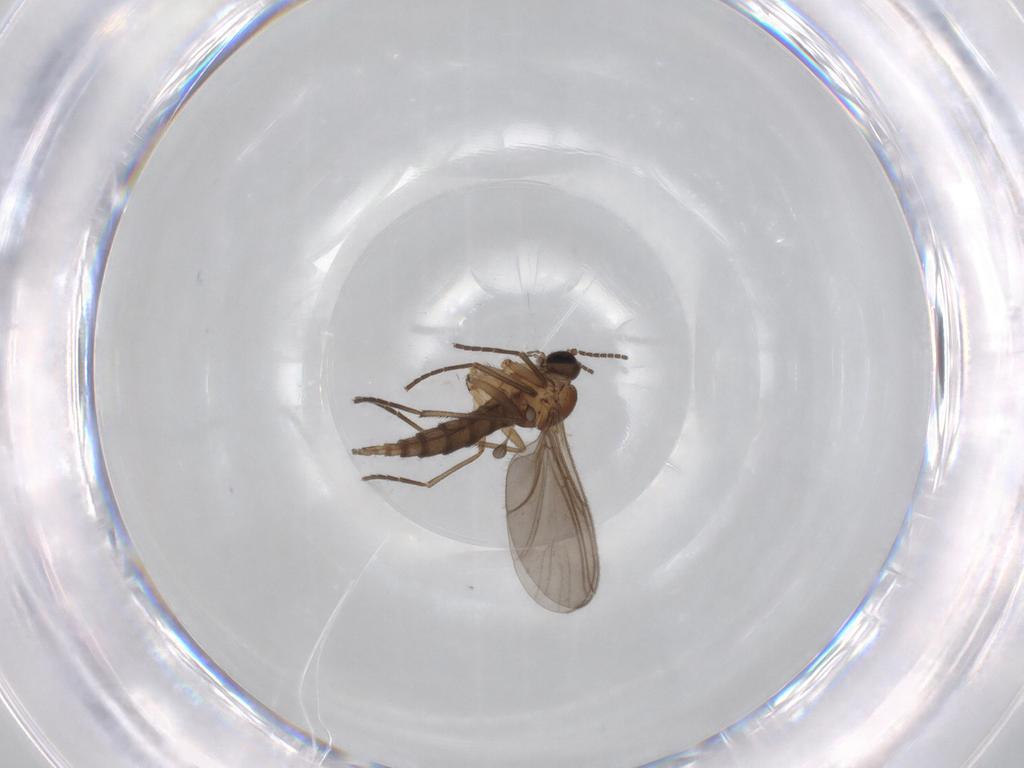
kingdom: Animalia
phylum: Arthropoda
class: Insecta
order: Diptera
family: Sciaridae
